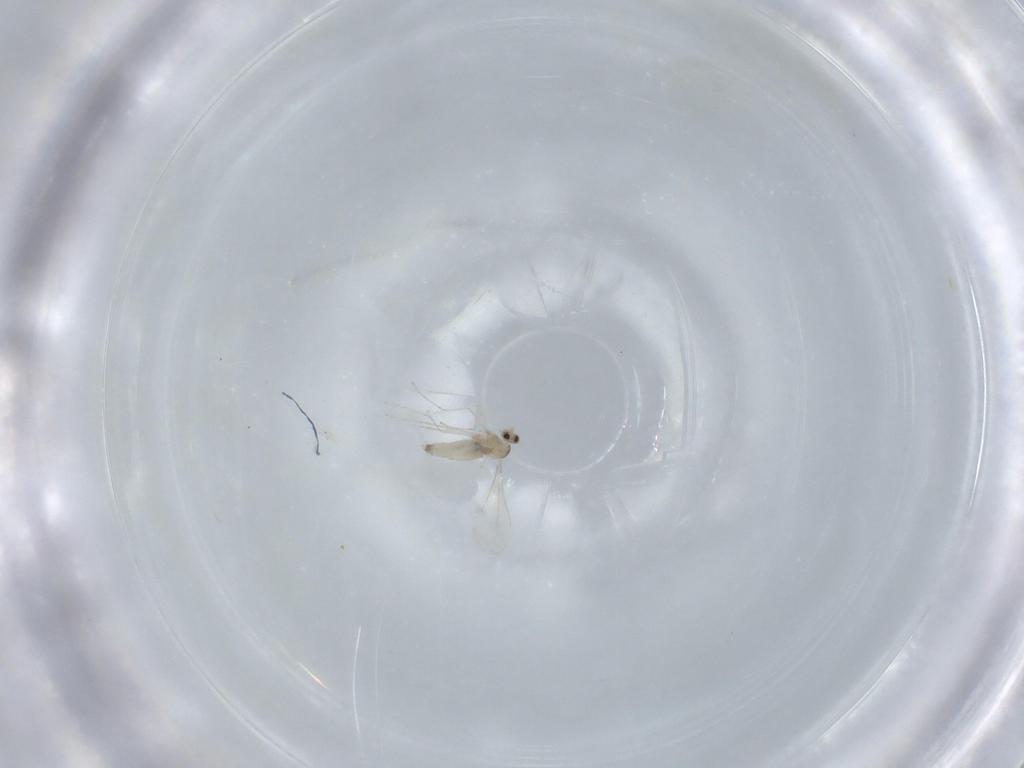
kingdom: Animalia
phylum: Arthropoda
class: Insecta
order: Diptera
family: Cecidomyiidae
